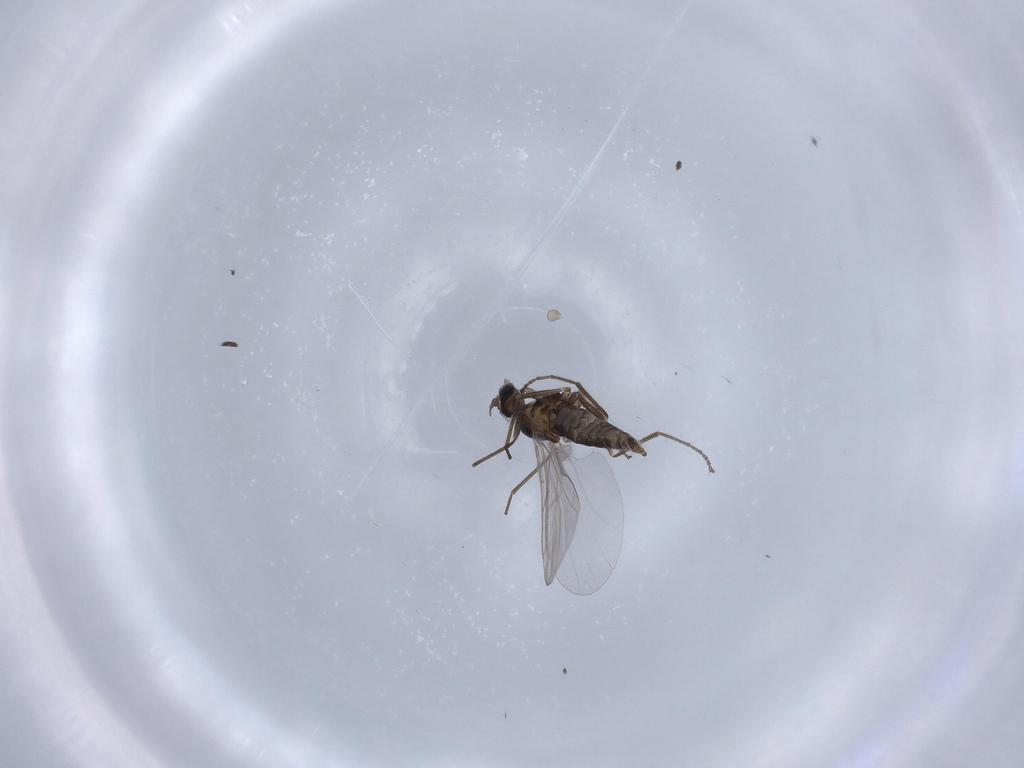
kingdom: Animalia
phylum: Arthropoda
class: Insecta
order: Diptera
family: Cecidomyiidae
